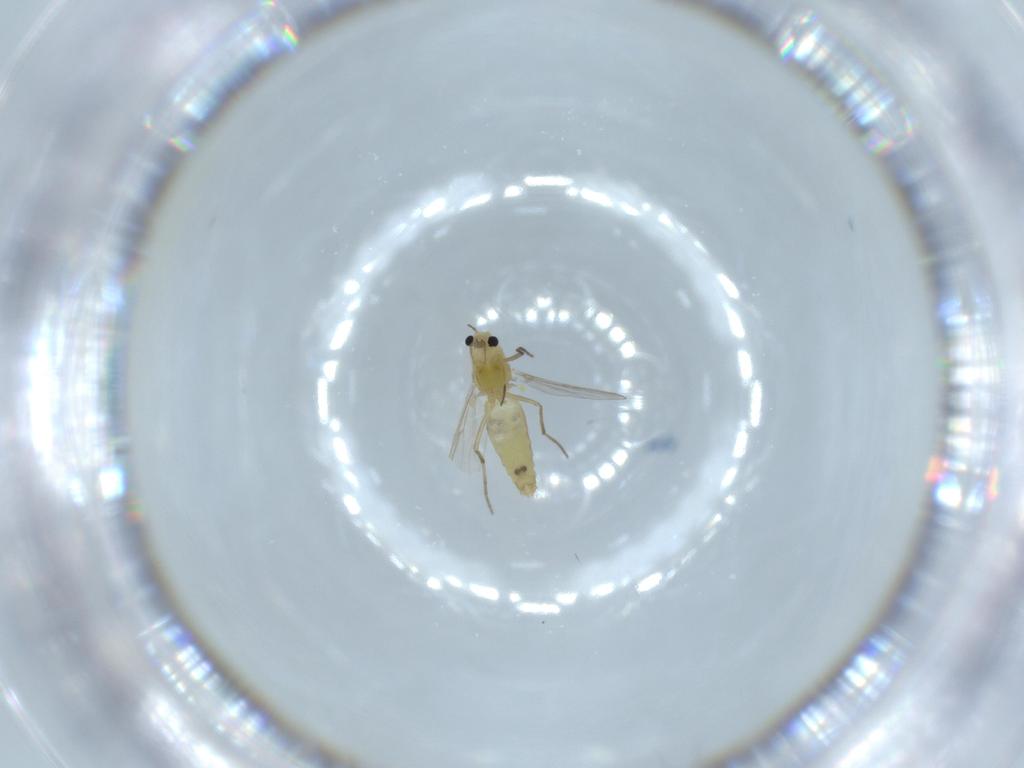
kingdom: Animalia
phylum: Arthropoda
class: Insecta
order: Diptera
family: Chironomidae
